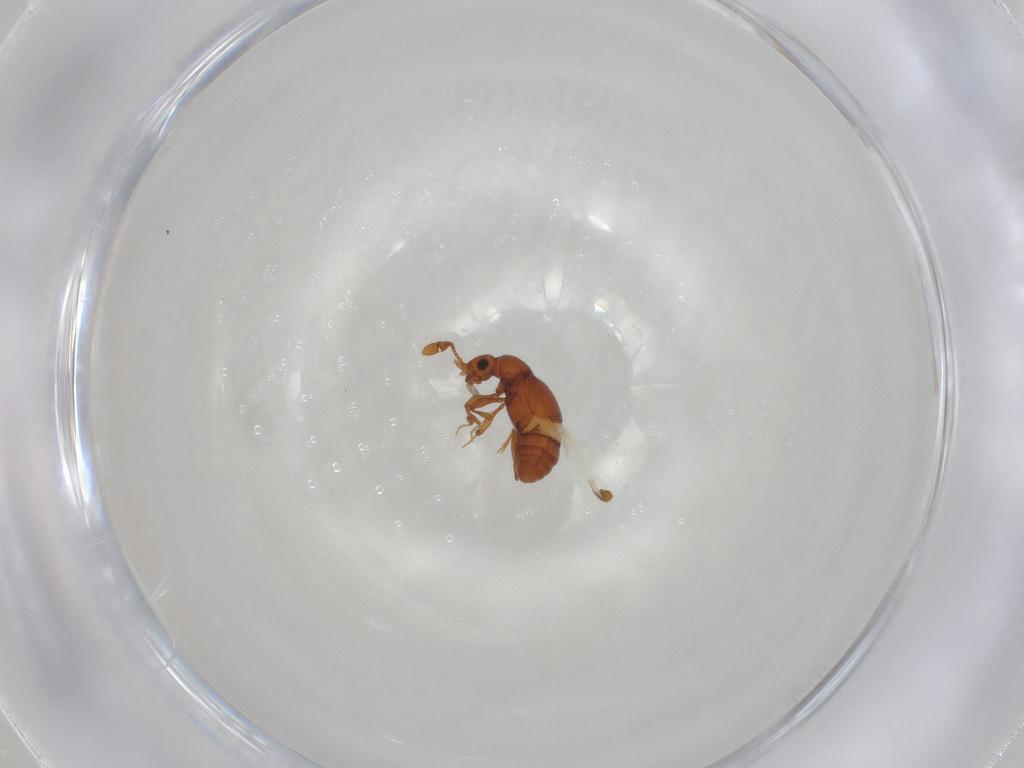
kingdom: Animalia
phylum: Arthropoda
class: Insecta
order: Coleoptera
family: Staphylinidae
